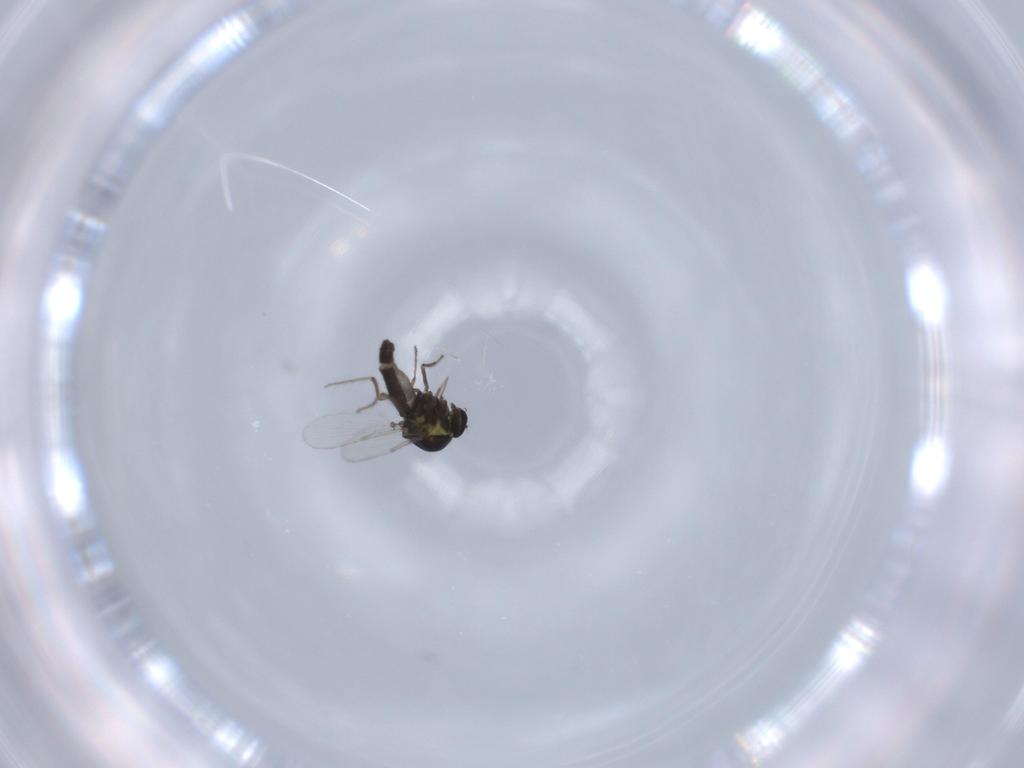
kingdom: Animalia
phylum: Arthropoda
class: Insecta
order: Diptera
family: Ceratopogonidae
